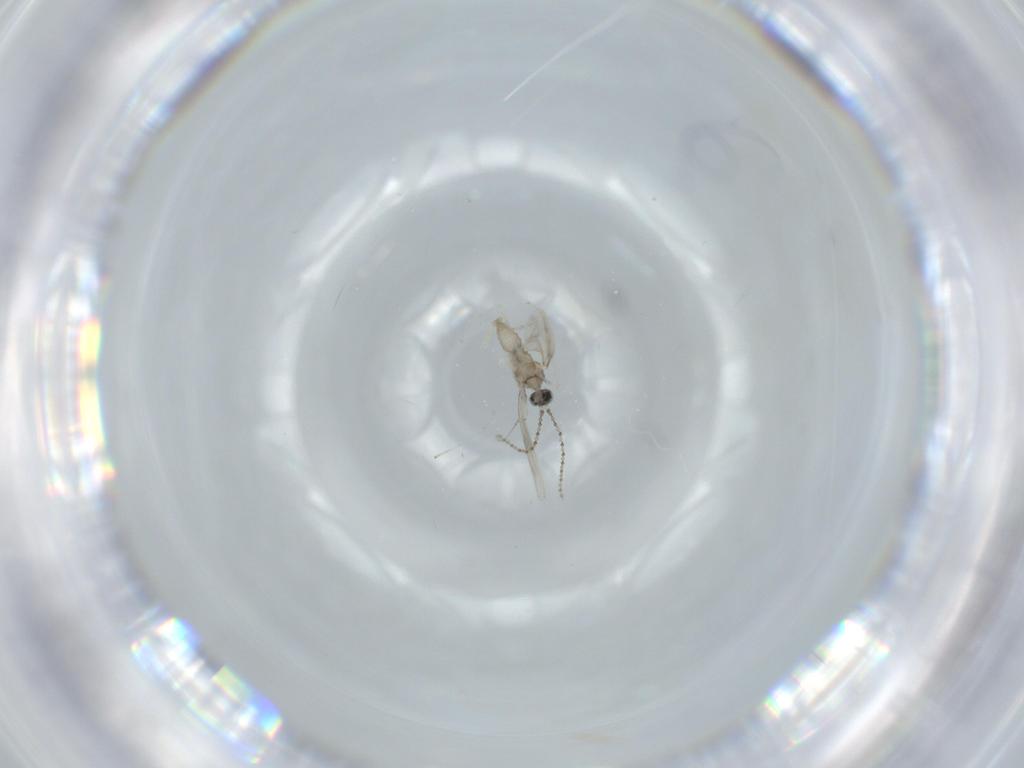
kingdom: Animalia
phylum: Arthropoda
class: Insecta
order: Diptera
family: Cecidomyiidae
